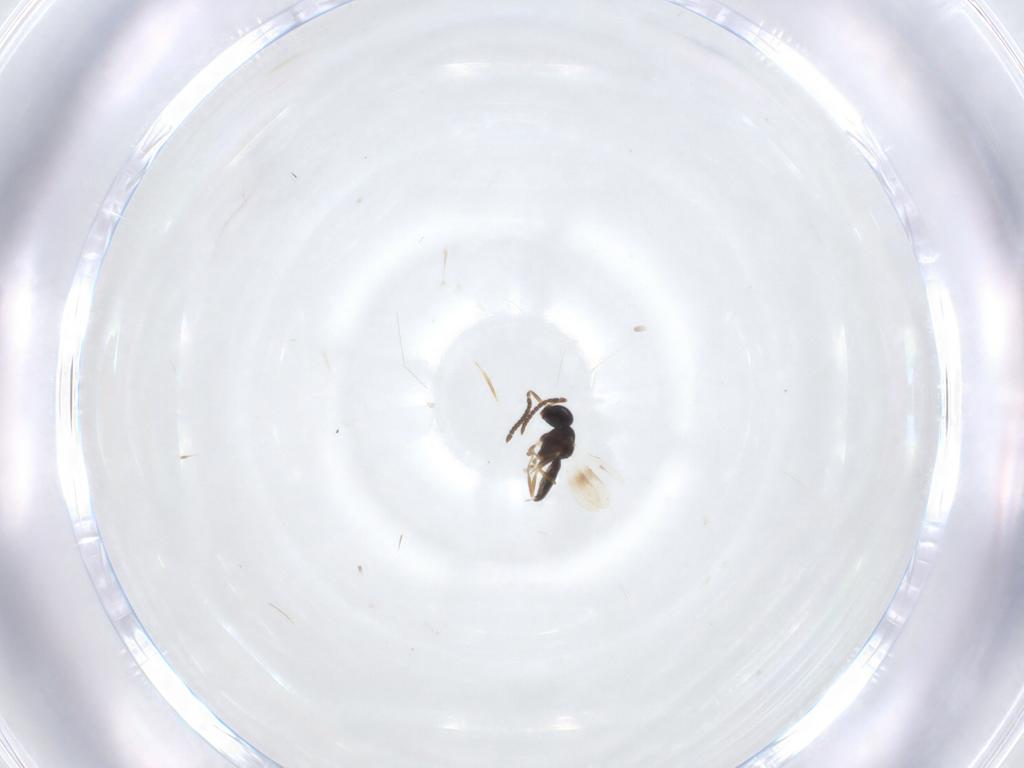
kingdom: Animalia
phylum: Arthropoda
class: Insecta
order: Hymenoptera
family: Scelionidae
